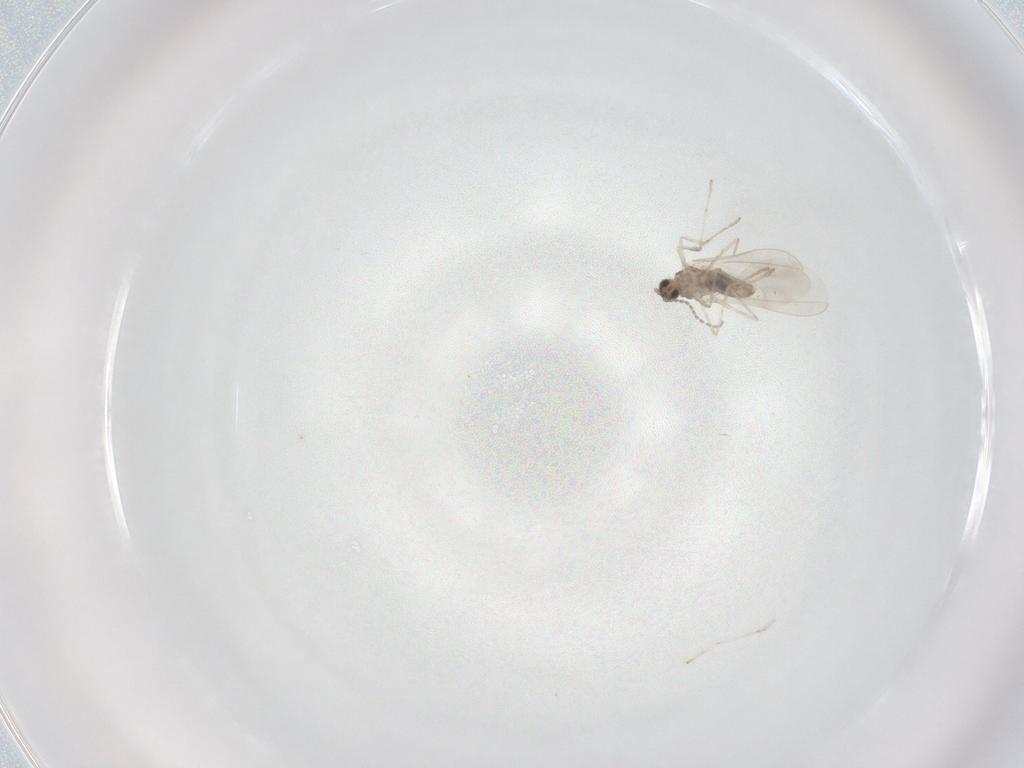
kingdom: Animalia
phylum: Arthropoda
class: Insecta
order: Diptera
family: Cecidomyiidae
